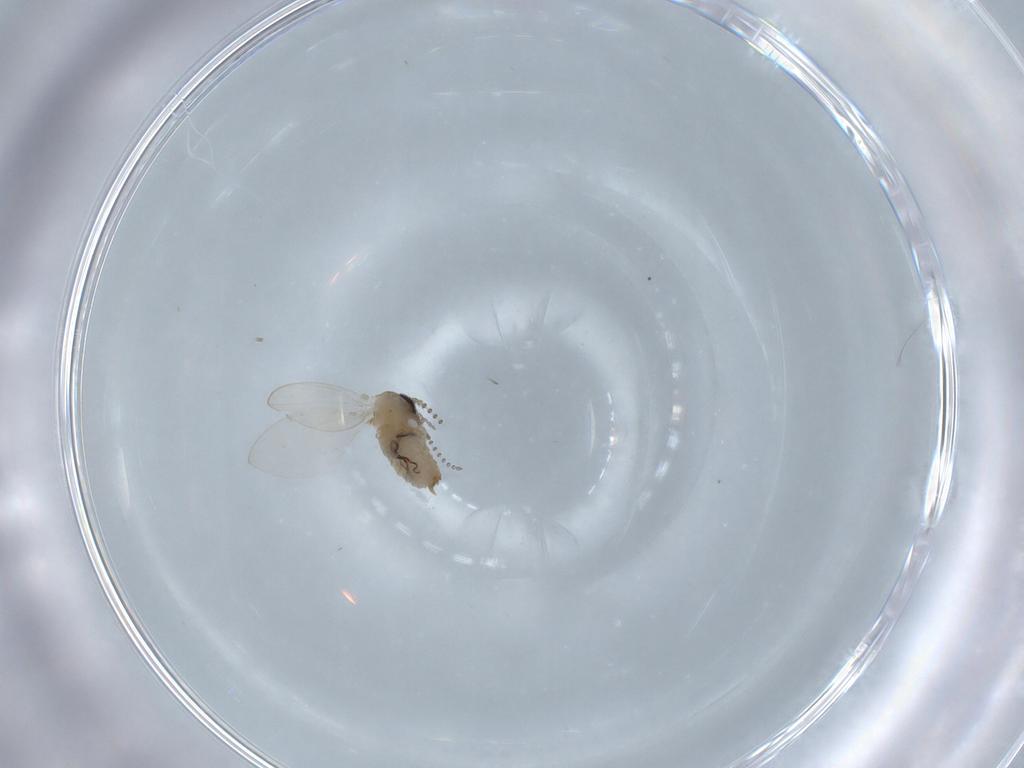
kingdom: Animalia
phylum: Arthropoda
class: Insecta
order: Diptera
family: Psychodidae
